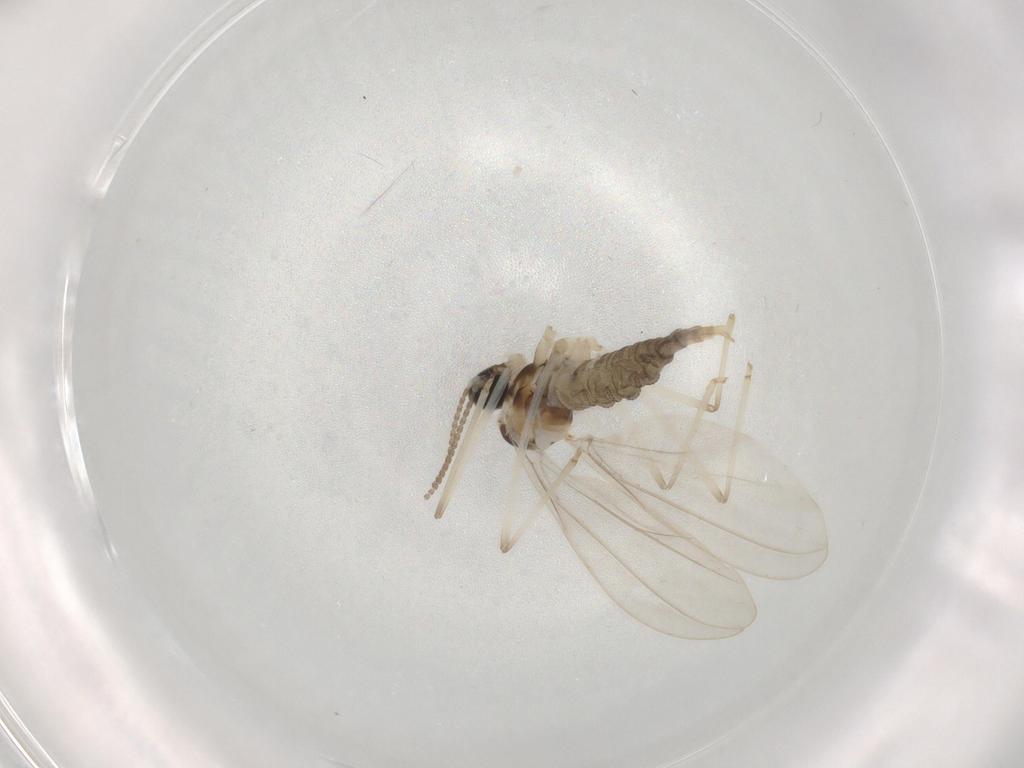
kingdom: Animalia
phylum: Arthropoda
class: Insecta
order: Diptera
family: Cecidomyiidae
